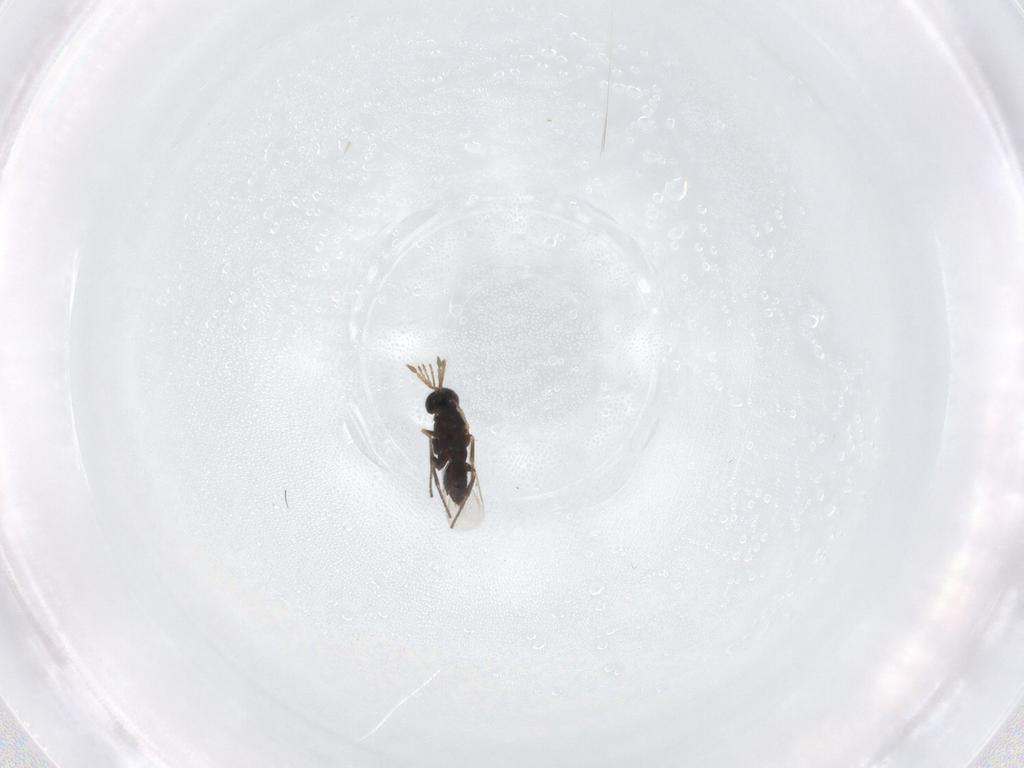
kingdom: Animalia
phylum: Arthropoda
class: Insecta
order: Hymenoptera
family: Eulophidae
